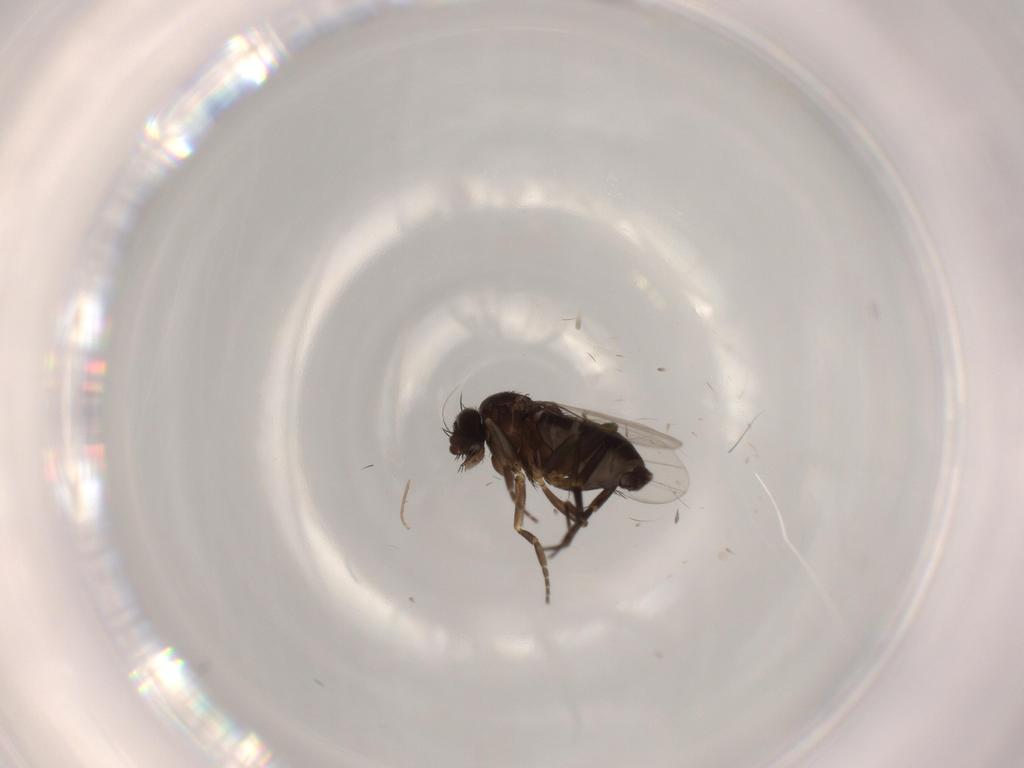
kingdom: Animalia
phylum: Arthropoda
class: Insecta
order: Diptera
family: Phoridae
